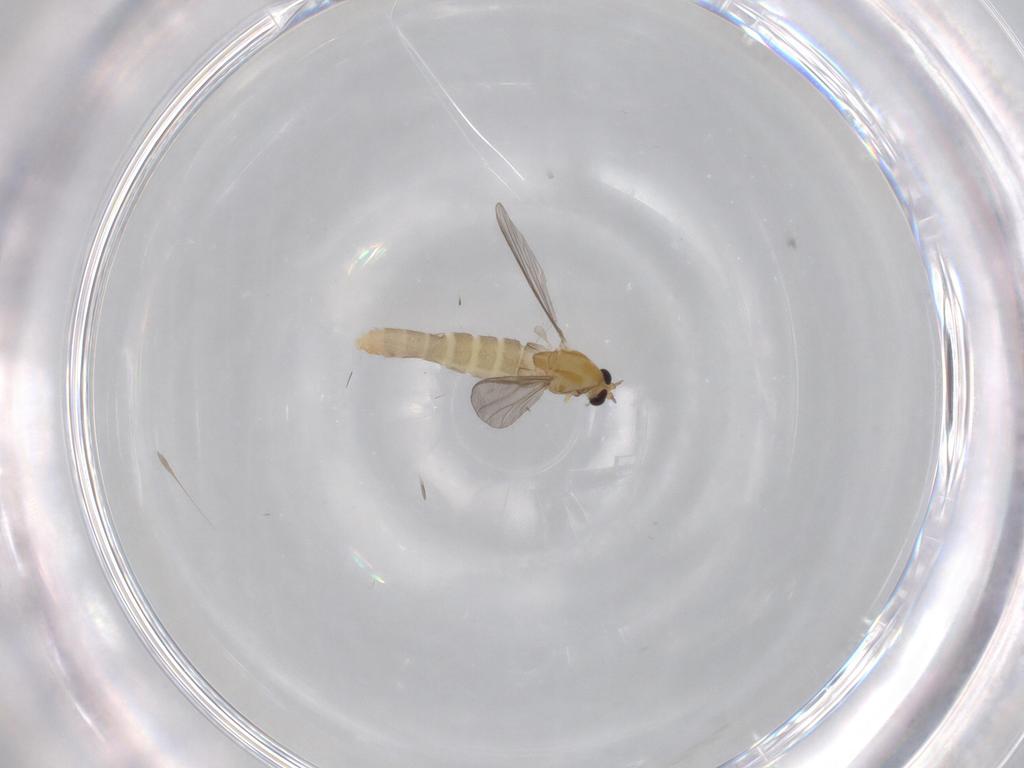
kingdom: Animalia
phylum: Arthropoda
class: Insecta
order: Diptera
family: Chironomidae
